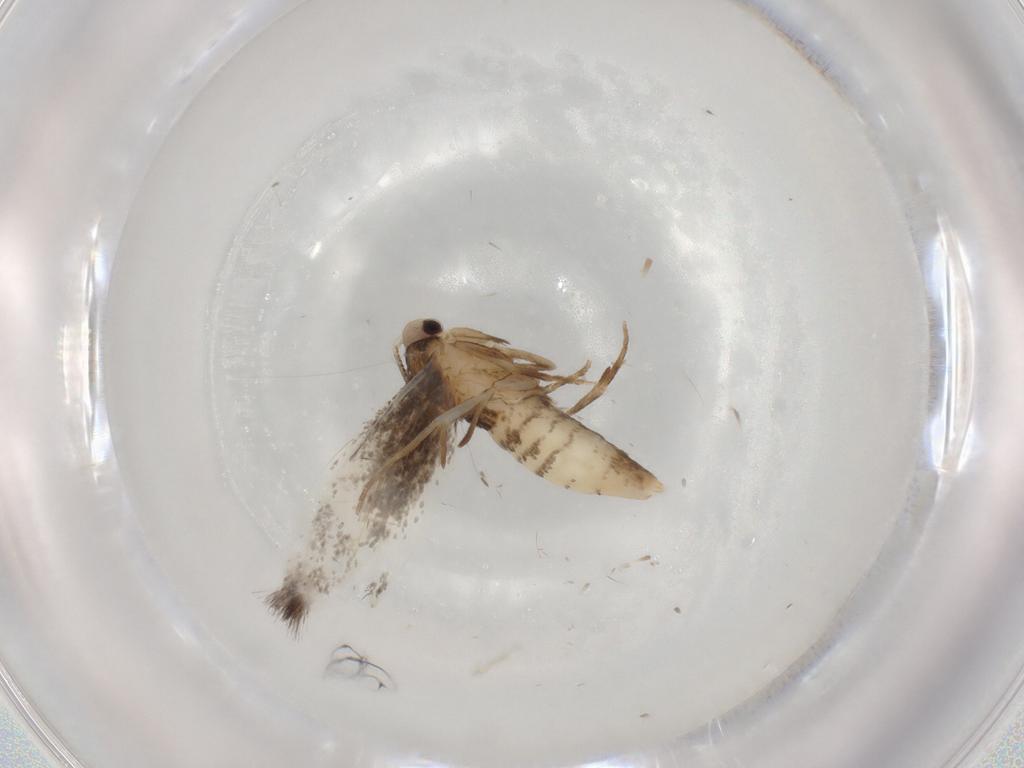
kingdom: Animalia
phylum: Arthropoda
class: Insecta
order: Lepidoptera
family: Tineidae
